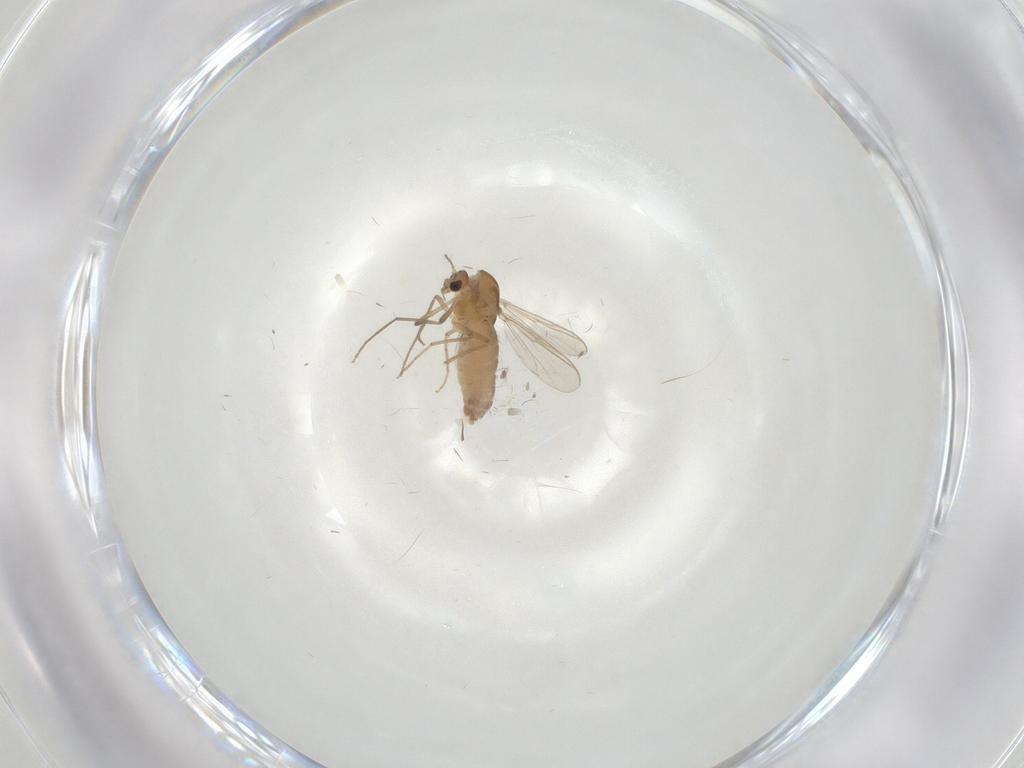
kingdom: Animalia
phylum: Arthropoda
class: Insecta
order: Diptera
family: Chironomidae
